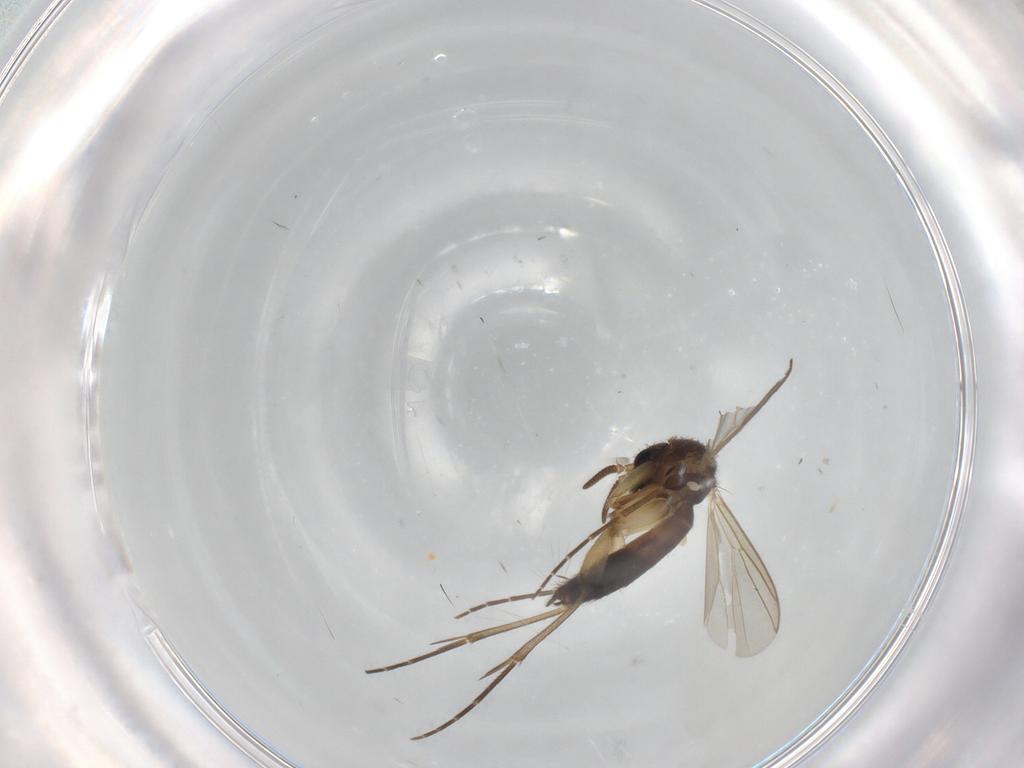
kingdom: Animalia
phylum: Arthropoda
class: Insecta
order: Diptera
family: Mycetophilidae
